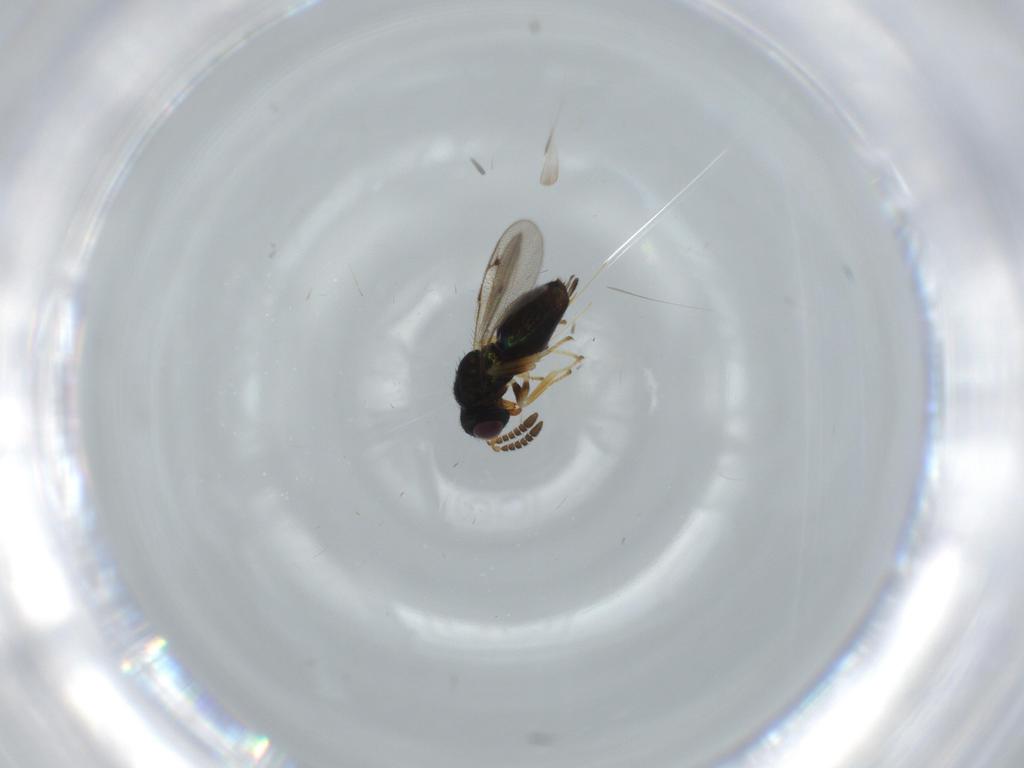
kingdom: Animalia
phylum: Arthropoda
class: Insecta
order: Hymenoptera
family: Pirenidae
